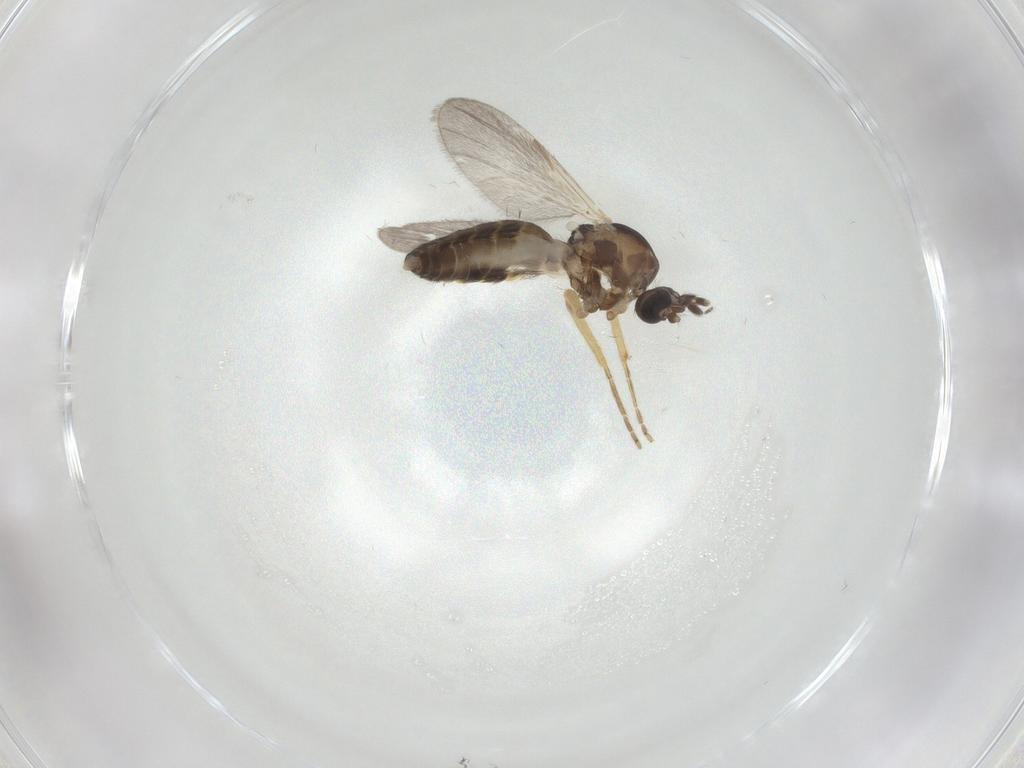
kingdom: Animalia
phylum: Arthropoda
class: Insecta
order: Diptera
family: Ceratopogonidae
